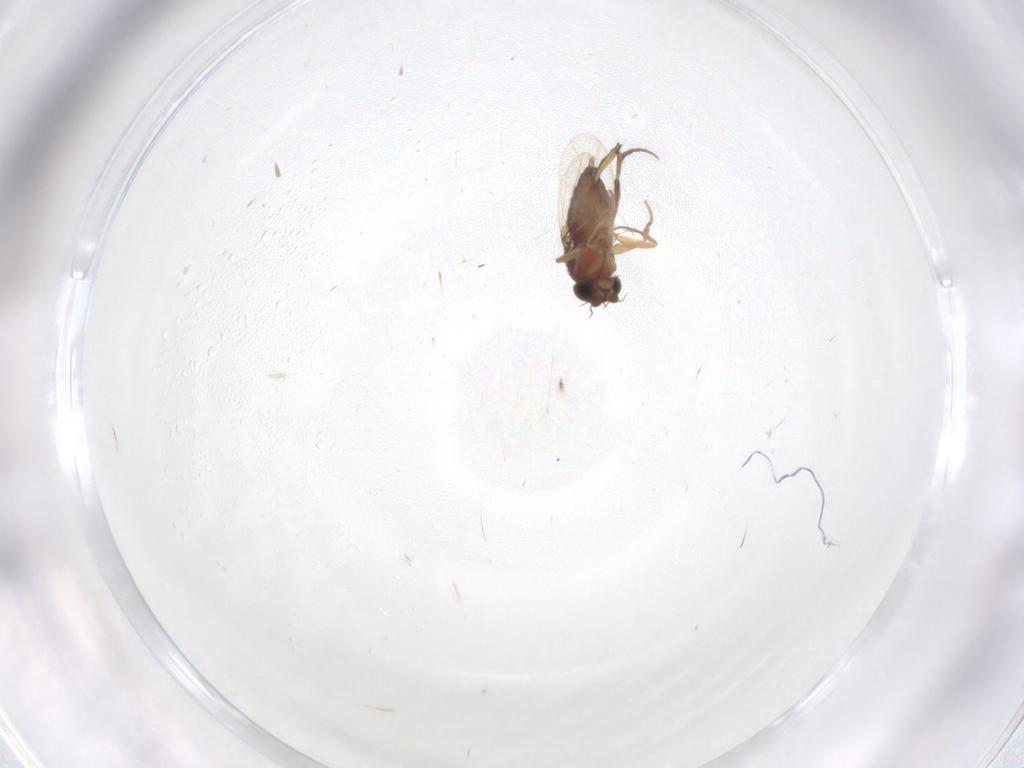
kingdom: Animalia
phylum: Arthropoda
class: Insecta
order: Diptera
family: Phoridae
